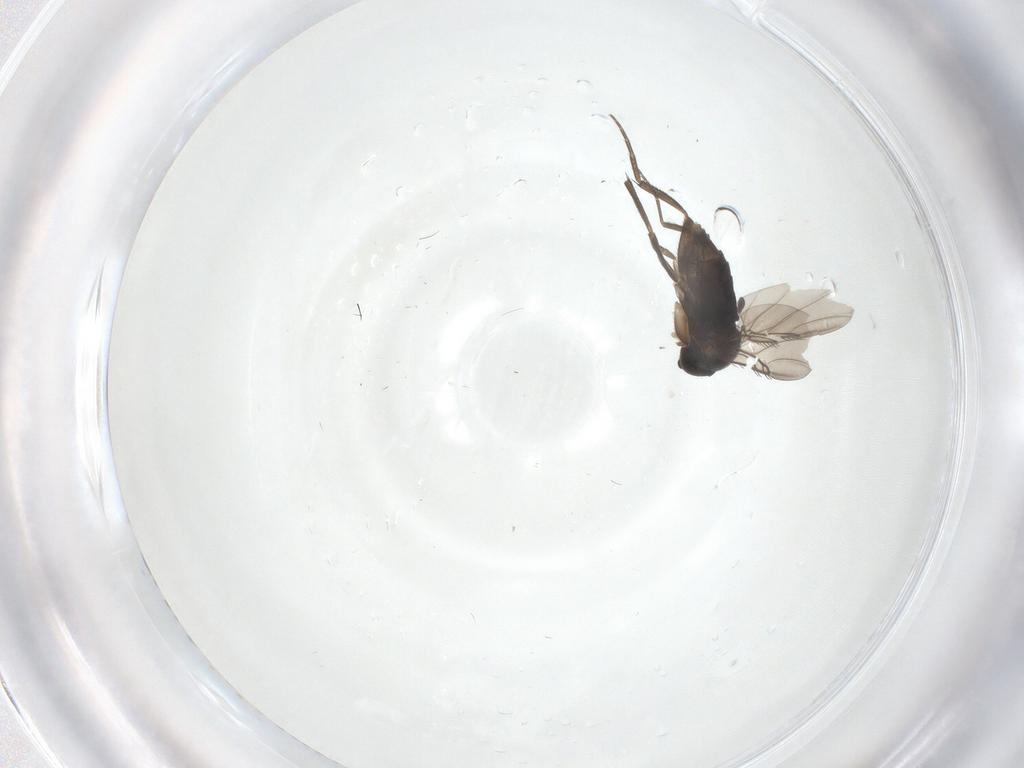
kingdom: Animalia
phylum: Arthropoda
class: Insecta
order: Diptera
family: Phoridae
